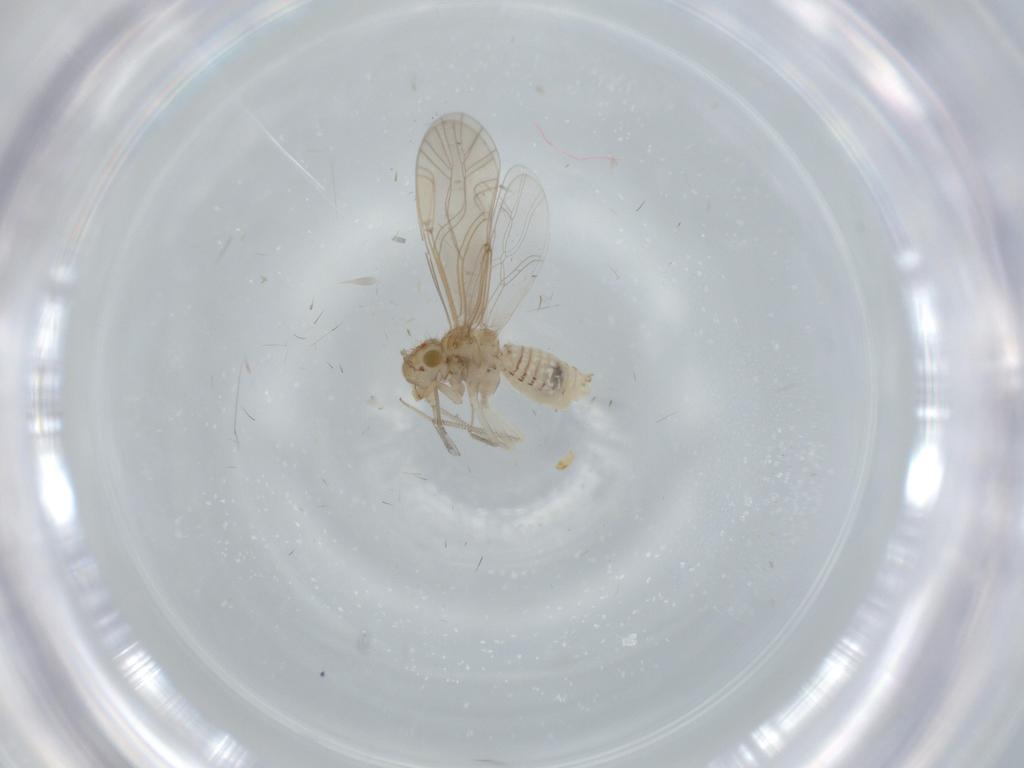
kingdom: Animalia
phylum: Arthropoda
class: Insecta
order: Psocodea
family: Lachesillidae
